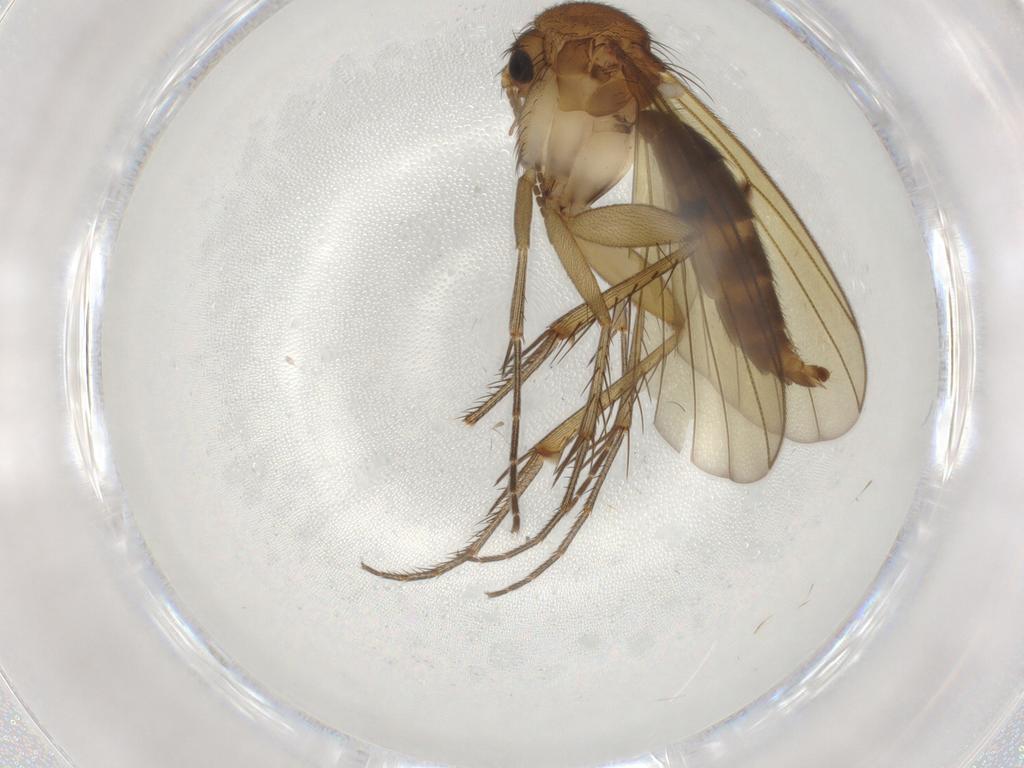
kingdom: Animalia
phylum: Arthropoda
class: Insecta
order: Diptera
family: Mycetophilidae
